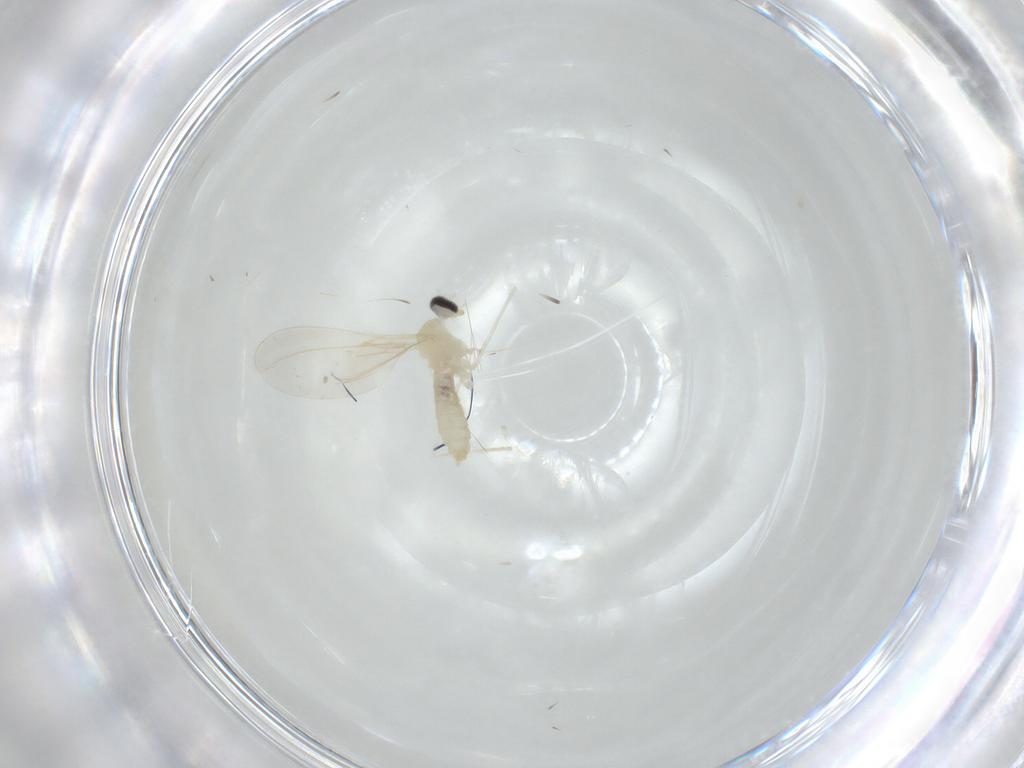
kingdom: Animalia
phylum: Arthropoda
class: Insecta
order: Diptera
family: Cecidomyiidae
